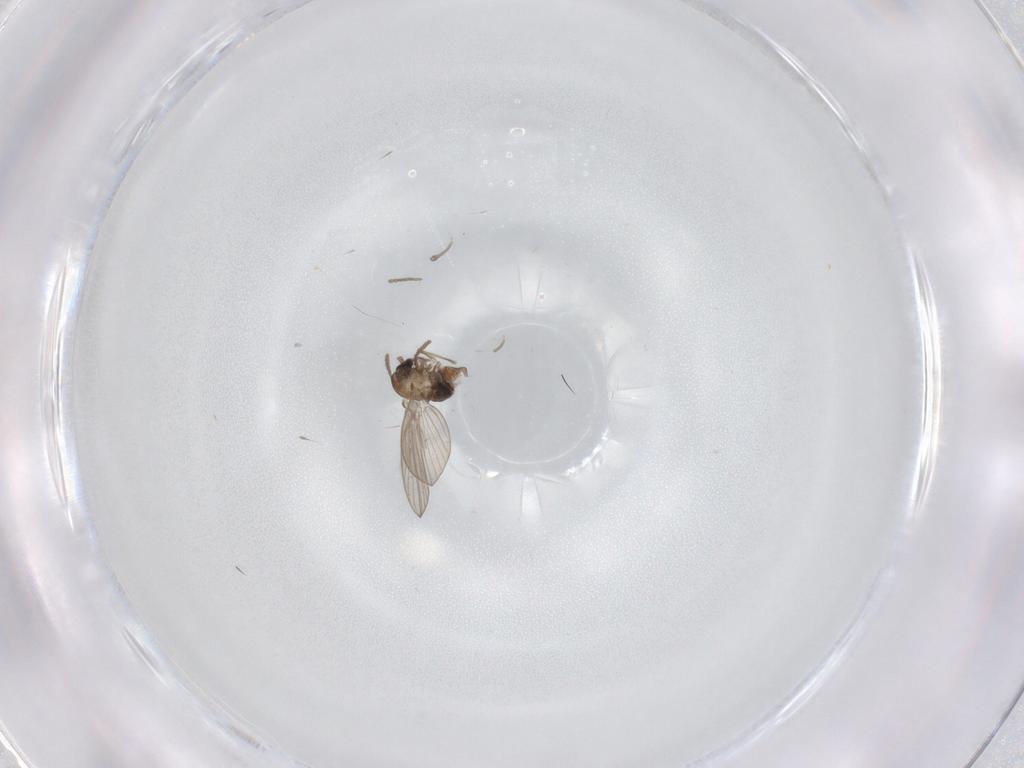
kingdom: Animalia
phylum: Arthropoda
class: Insecta
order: Diptera
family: Psychodidae
